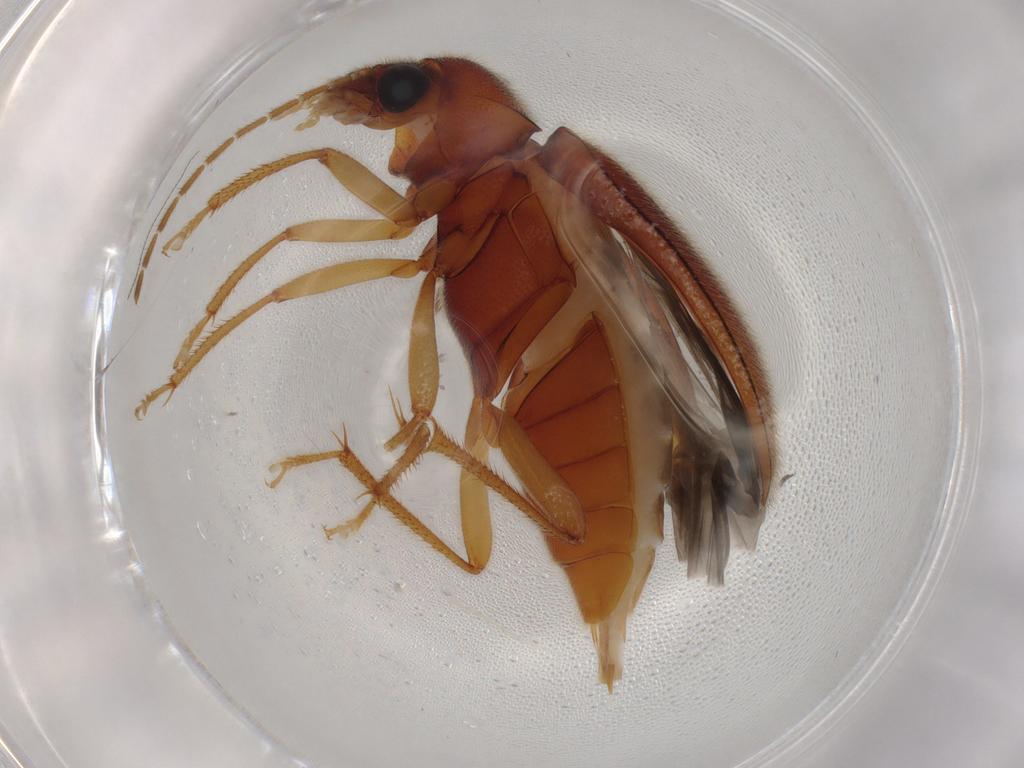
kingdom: Animalia
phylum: Arthropoda
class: Insecta
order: Coleoptera
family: Ptilodactylidae
